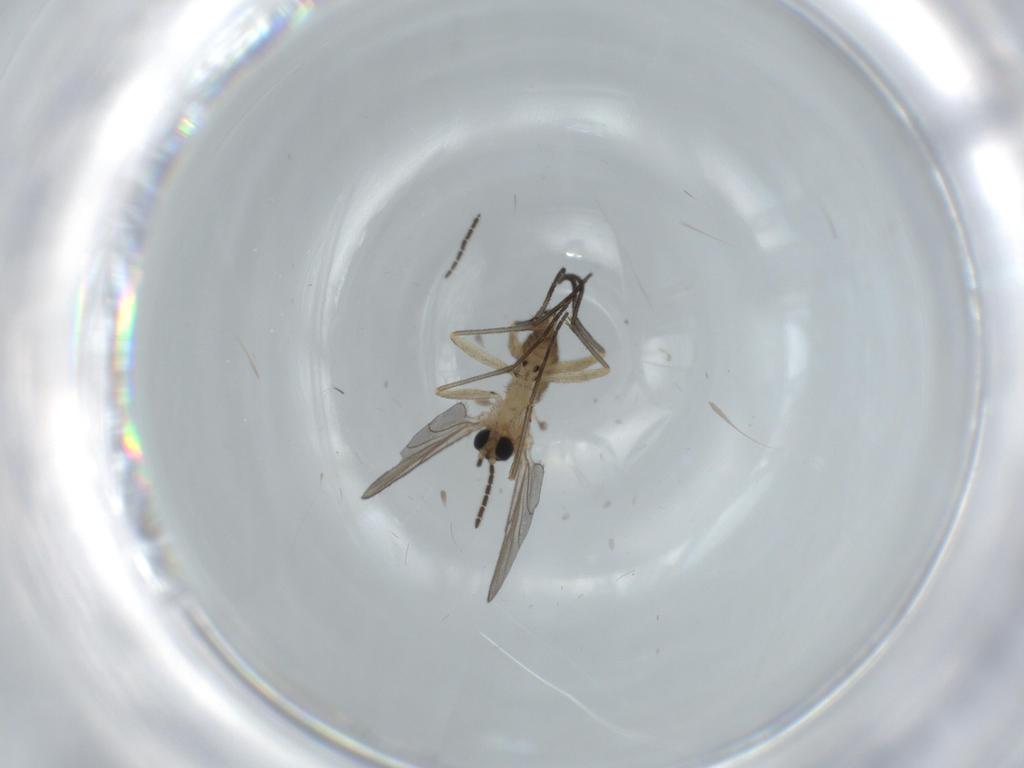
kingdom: Animalia
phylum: Arthropoda
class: Insecta
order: Diptera
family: Sciaridae
